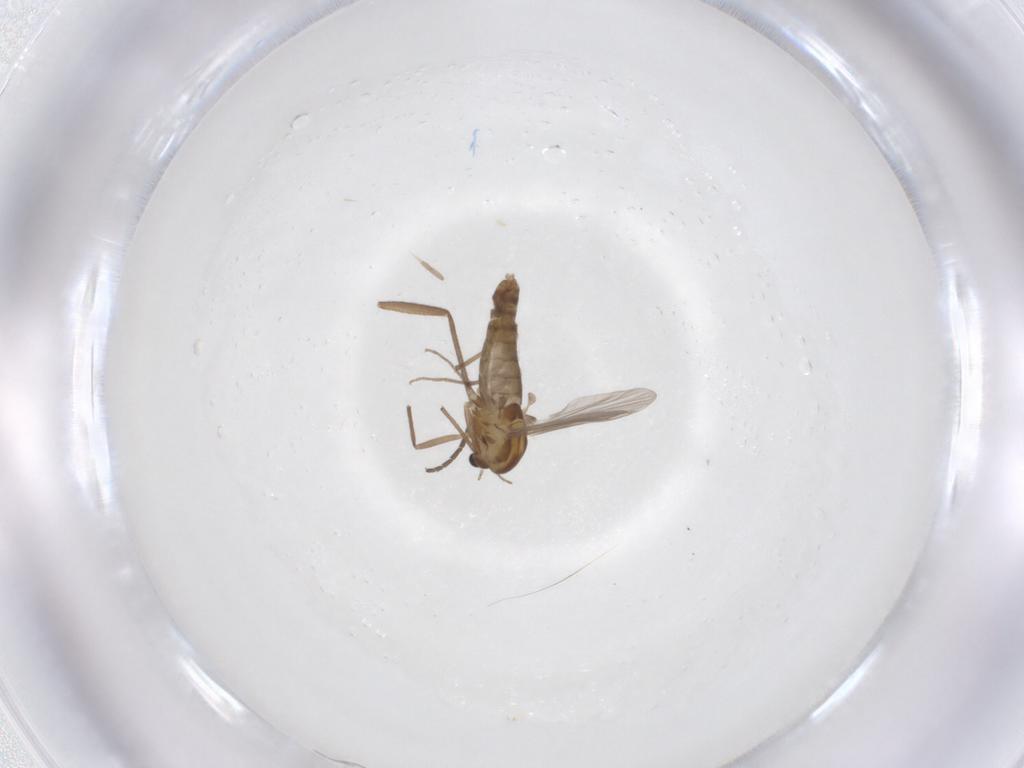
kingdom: Animalia
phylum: Arthropoda
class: Insecta
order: Diptera
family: Chironomidae
